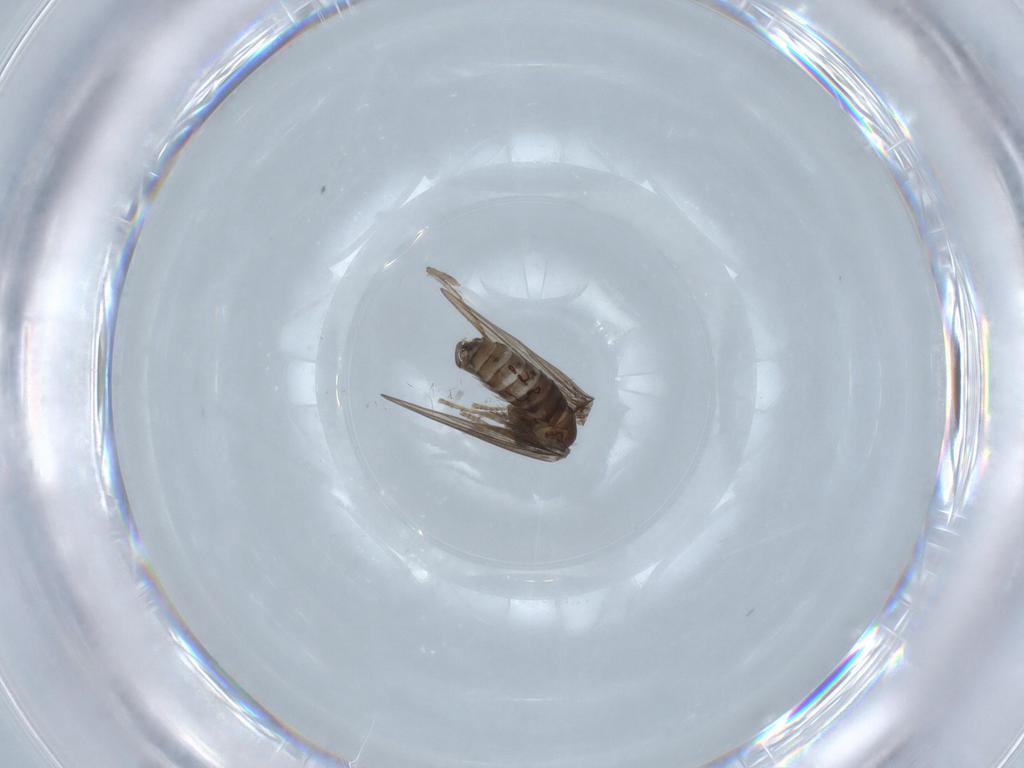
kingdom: Animalia
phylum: Arthropoda
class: Insecta
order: Diptera
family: Psychodidae
